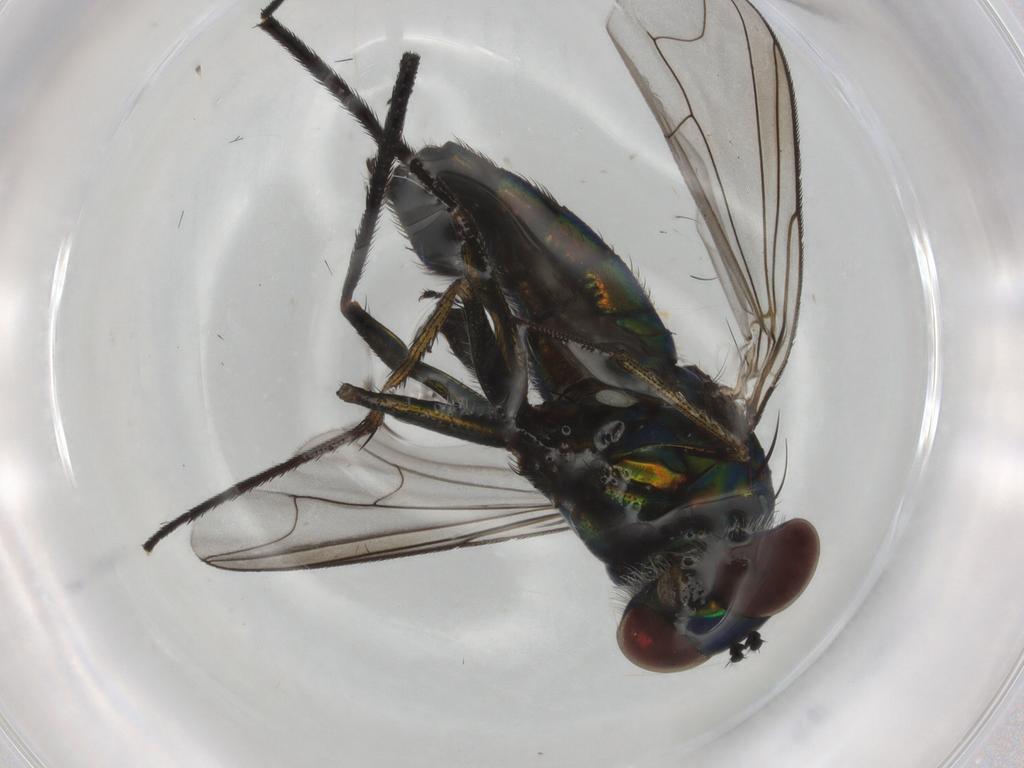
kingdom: Animalia
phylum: Arthropoda
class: Insecta
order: Diptera
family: Dolichopodidae
